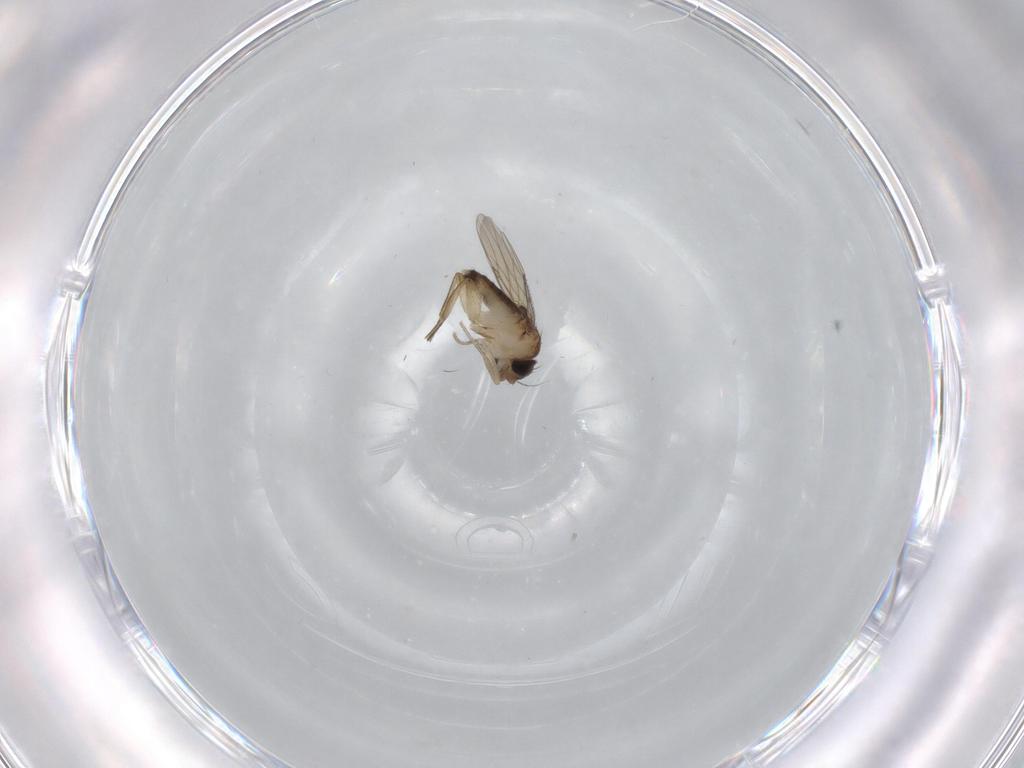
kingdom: Animalia
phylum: Arthropoda
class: Insecta
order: Diptera
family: Phoridae
